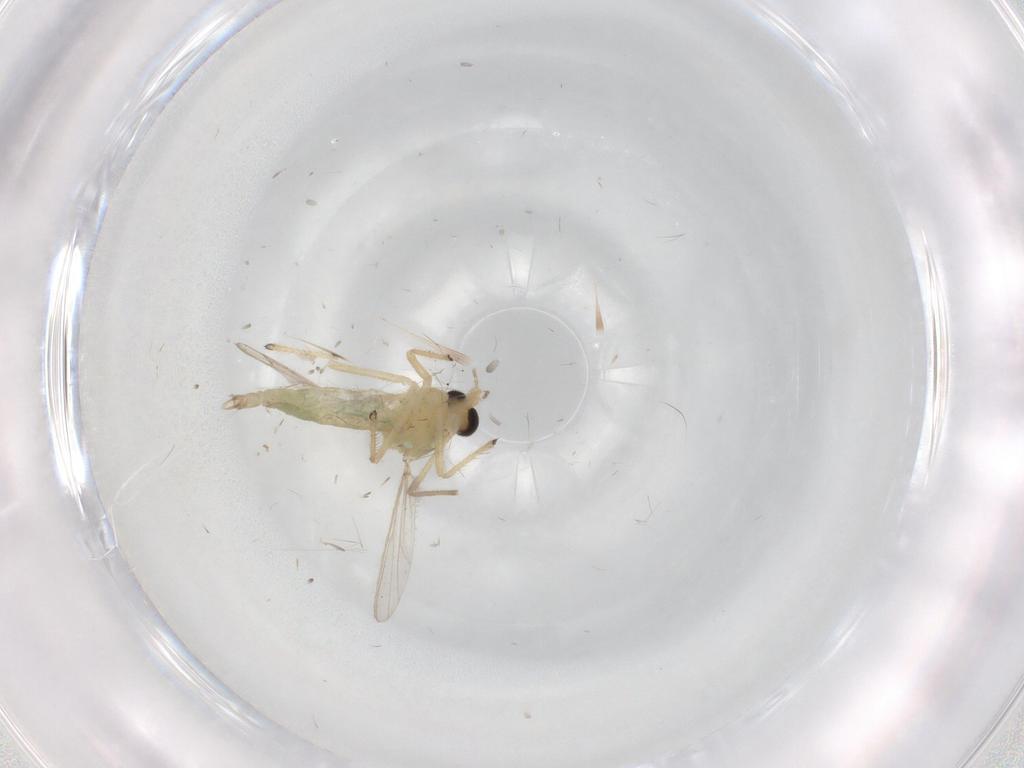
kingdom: Animalia
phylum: Arthropoda
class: Insecta
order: Diptera
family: Chironomidae
